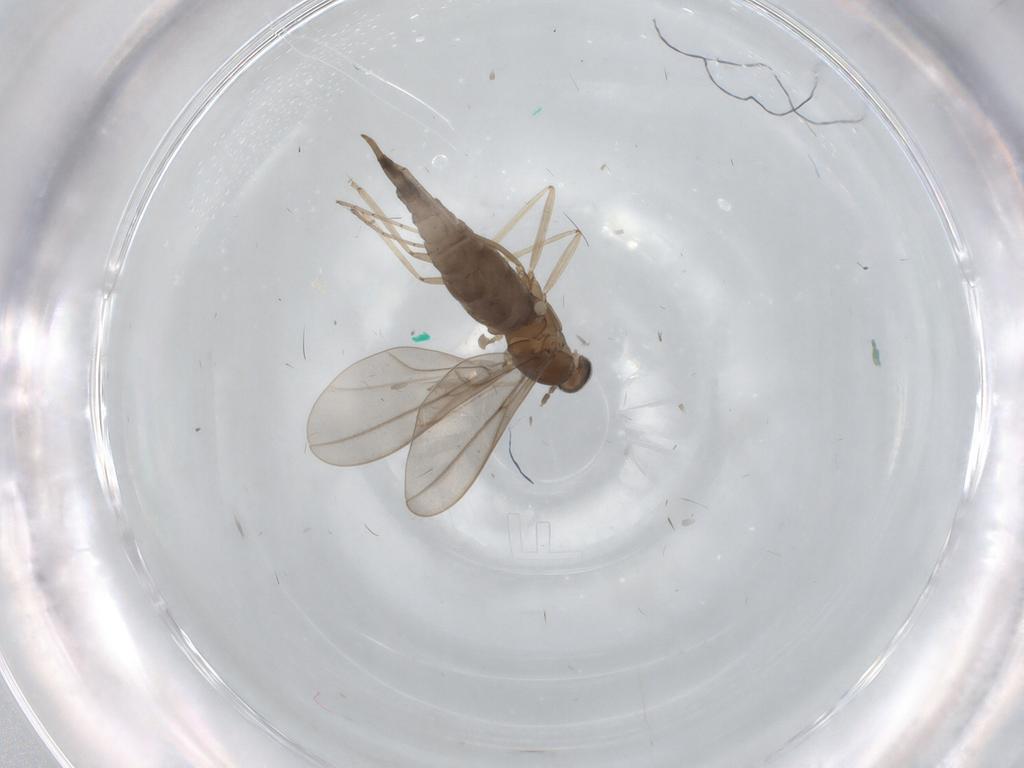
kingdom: Animalia
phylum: Arthropoda
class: Insecta
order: Diptera
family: Cecidomyiidae
